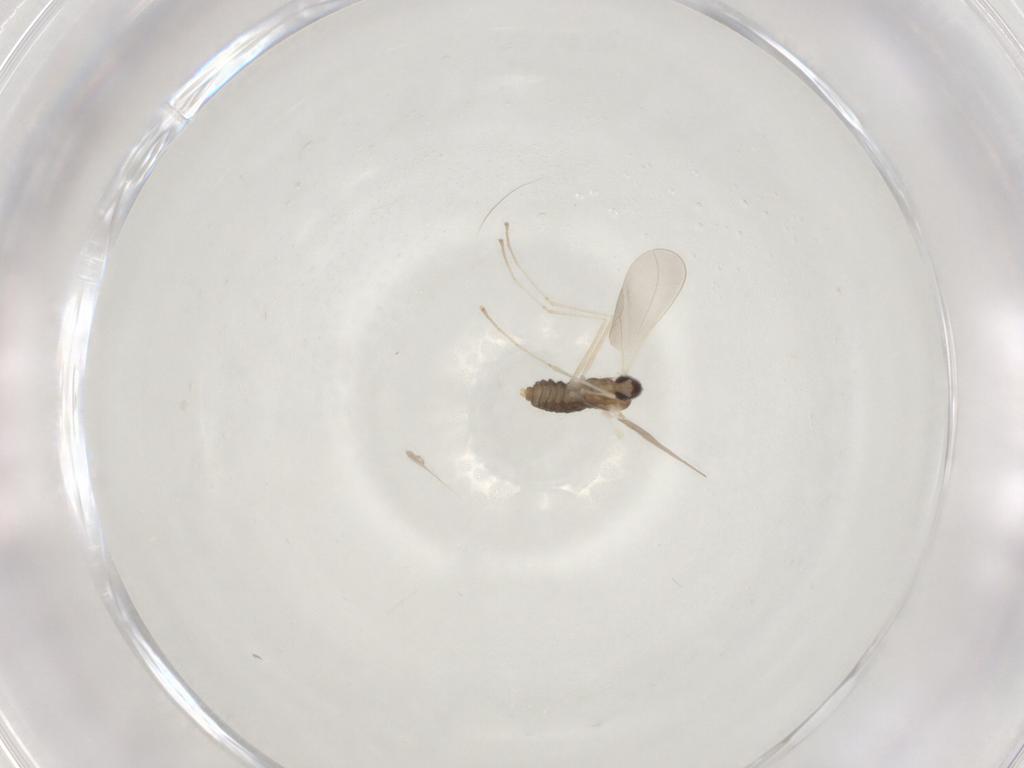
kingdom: Animalia
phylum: Arthropoda
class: Insecta
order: Diptera
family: Cecidomyiidae
